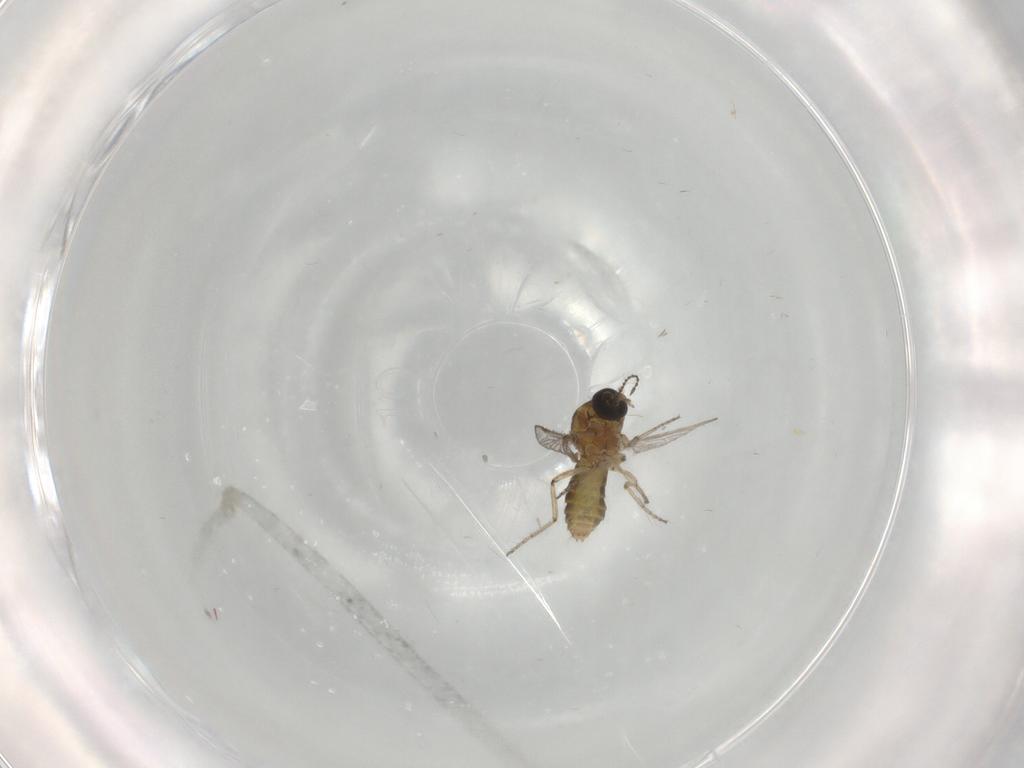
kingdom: Animalia
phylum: Arthropoda
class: Insecta
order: Diptera
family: Ceratopogonidae
